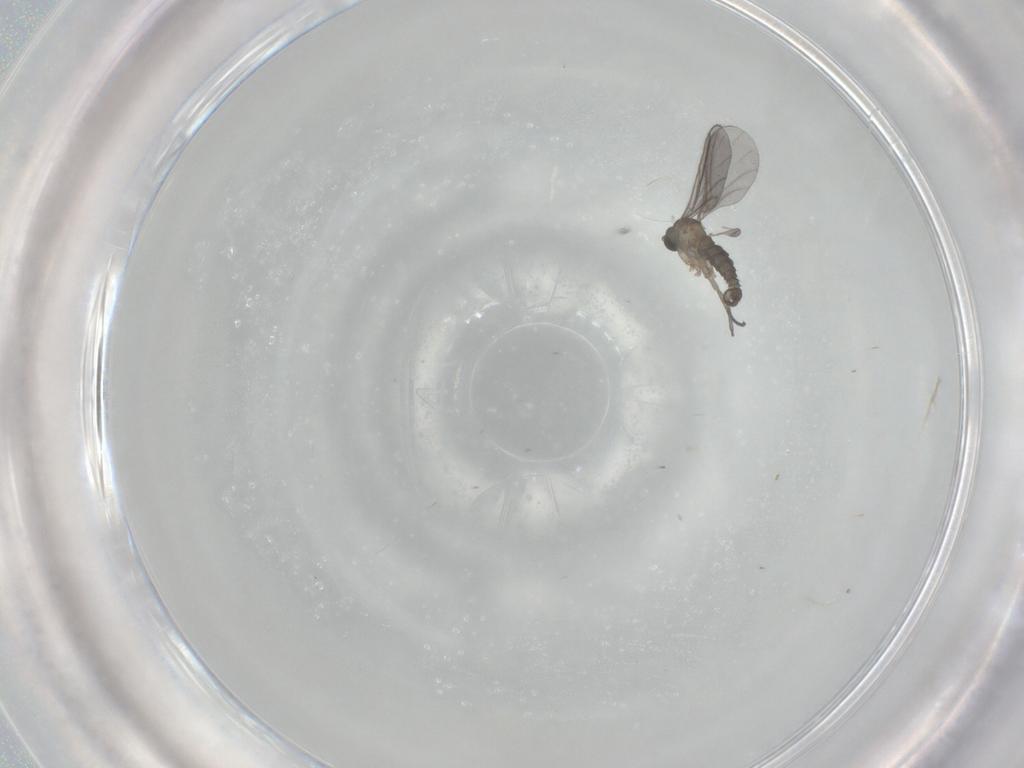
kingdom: Animalia
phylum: Arthropoda
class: Insecta
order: Diptera
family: Sciaridae
